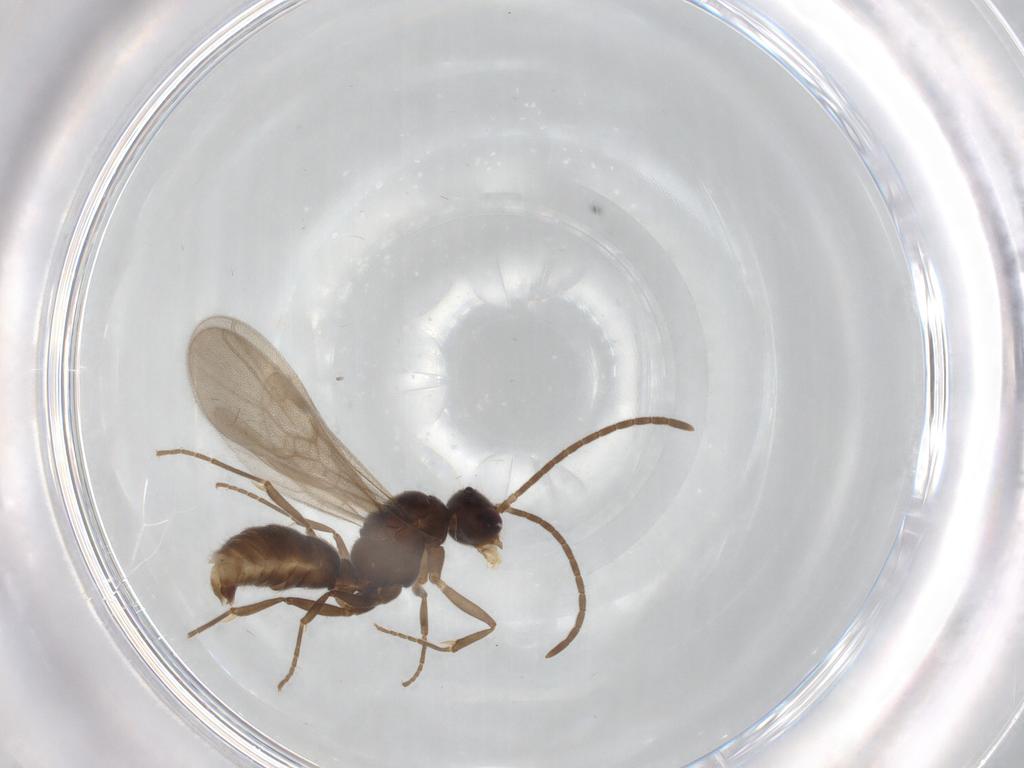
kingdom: Animalia
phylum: Arthropoda
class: Insecta
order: Hymenoptera
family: Formicidae
